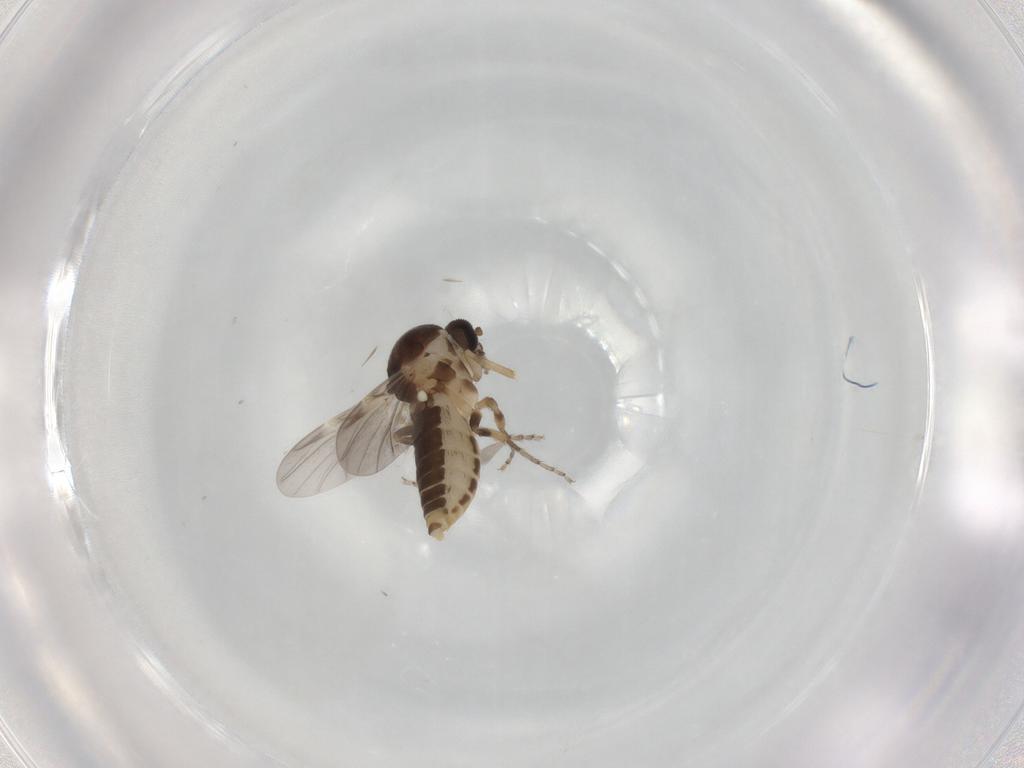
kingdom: Animalia
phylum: Arthropoda
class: Insecta
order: Diptera
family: Ceratopogonidae
